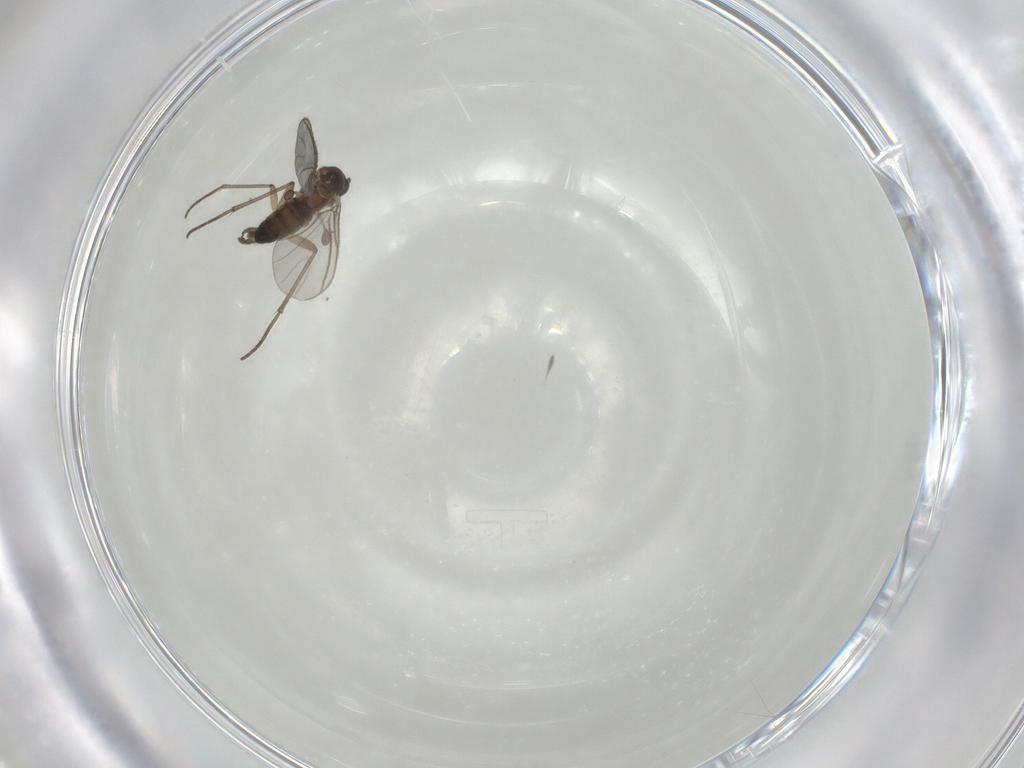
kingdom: Animalia
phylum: Arthropoda
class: Insecta
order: Diptera
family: Sciaridae
